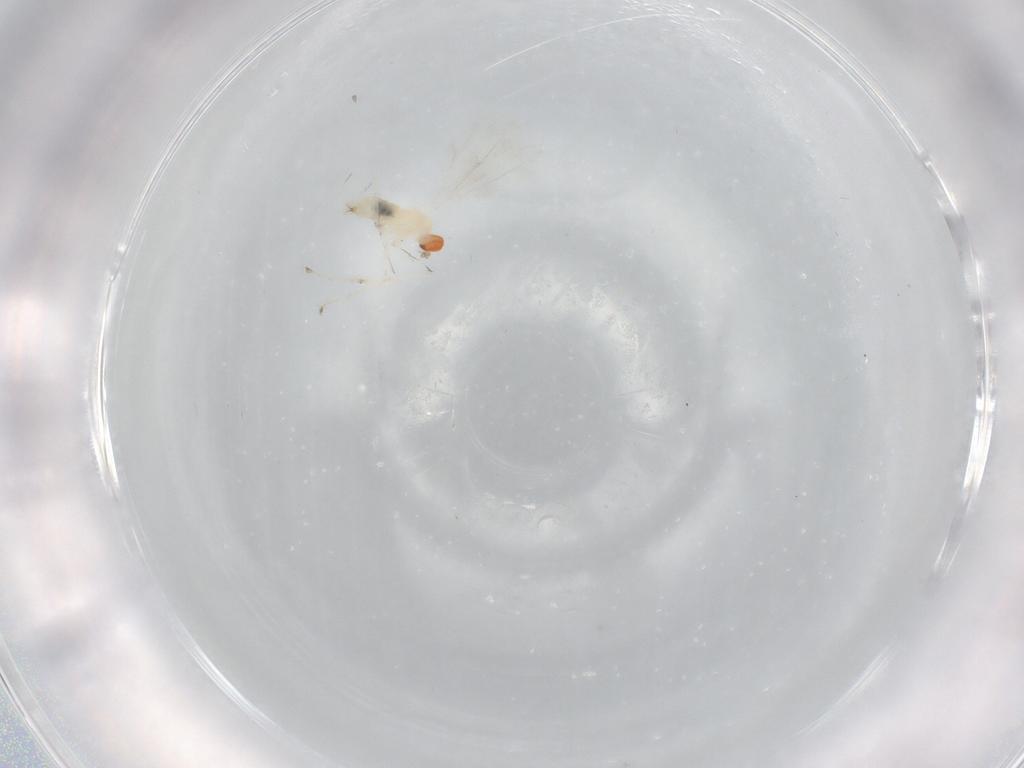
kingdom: Animalia
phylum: Arthropoda
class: Insecta
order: Diptera
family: Cecidomyiidae
